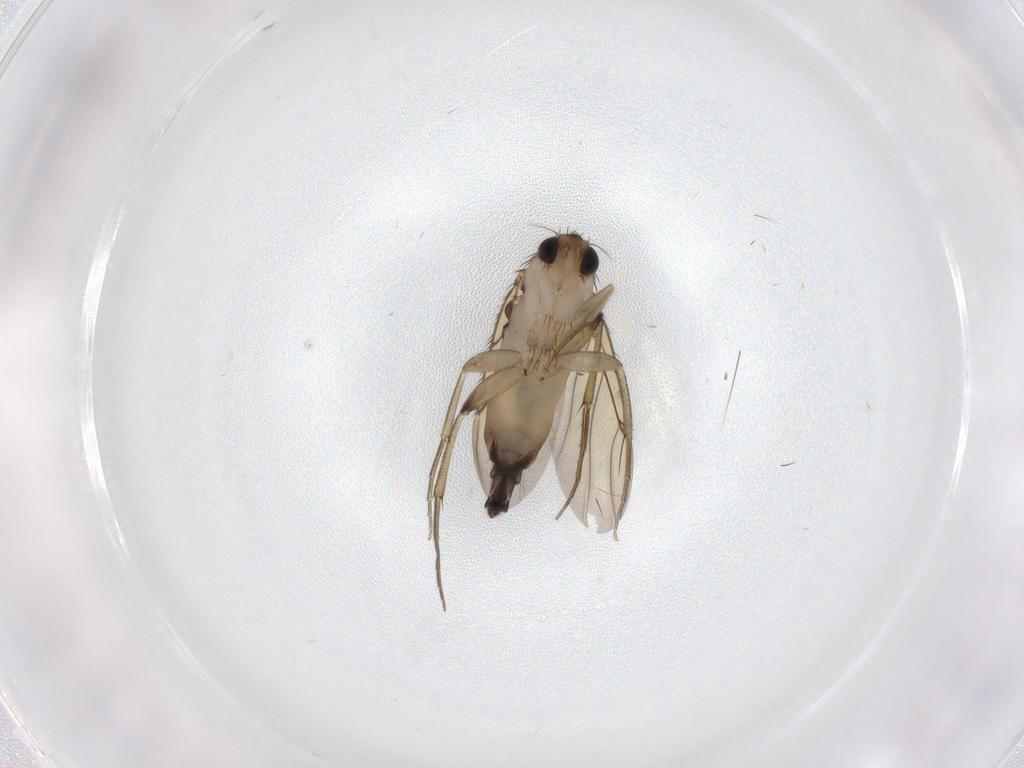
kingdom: Animalia
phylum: Arthropoda
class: Insecta
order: Diptera
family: Phoridae
